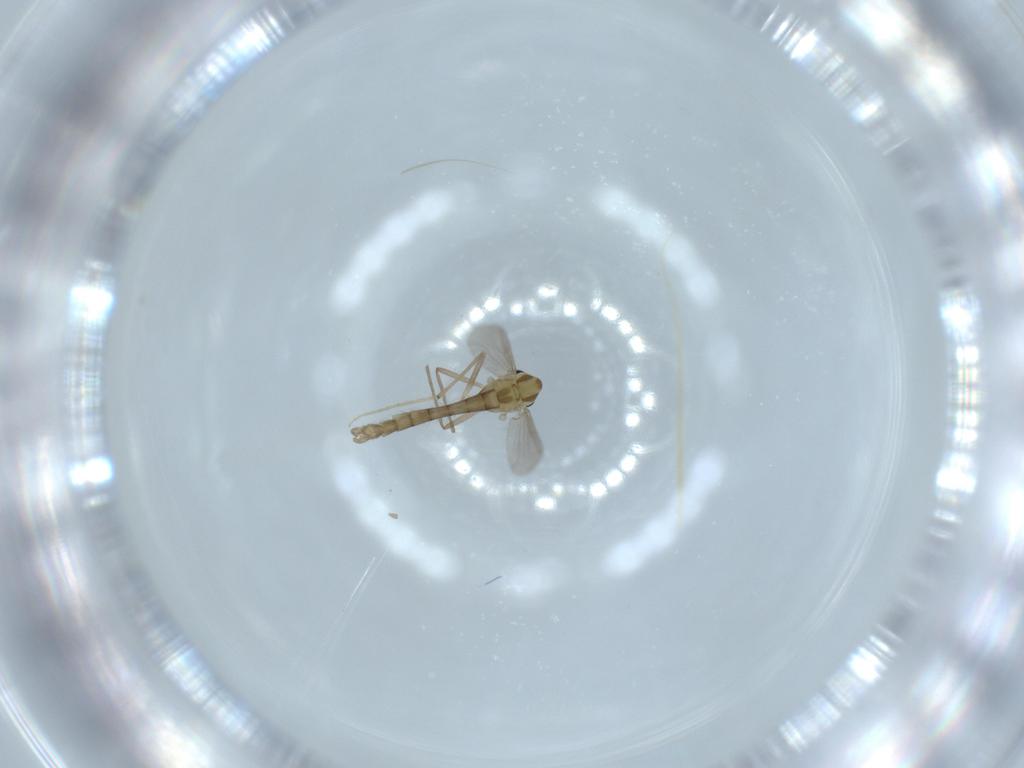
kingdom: Animalia
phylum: Arthropoda
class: Insecta
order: Diptera
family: Chironomidae
